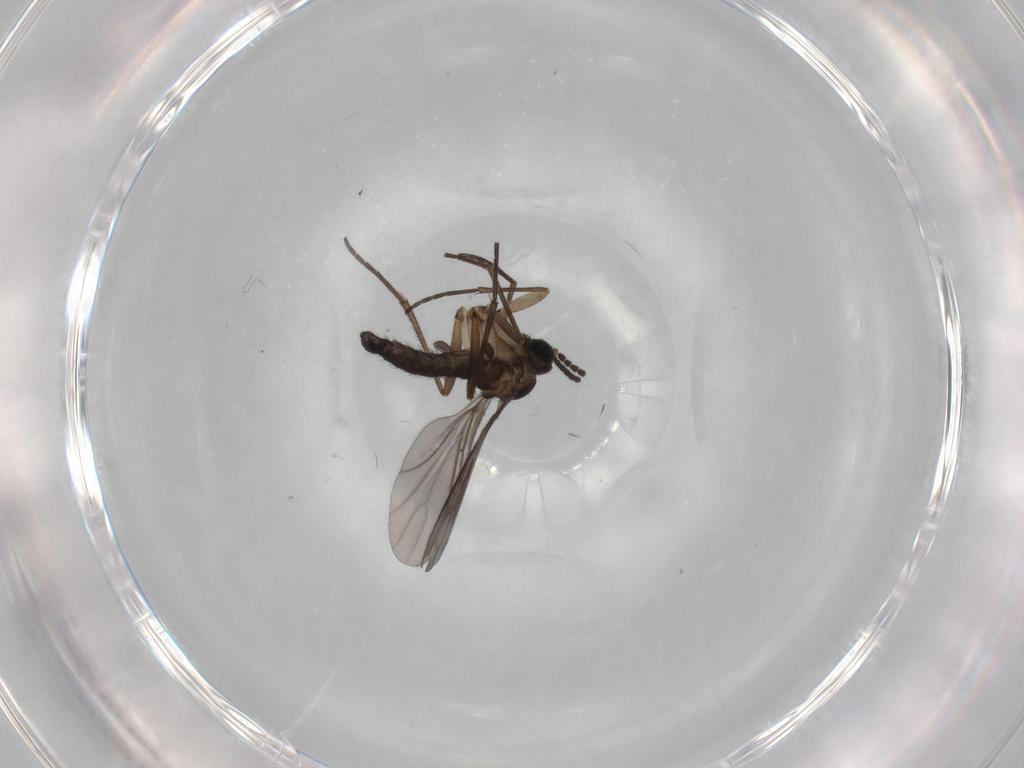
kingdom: Animalia
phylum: Arthropoda
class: Insecta
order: Diptera
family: Sciaridae
